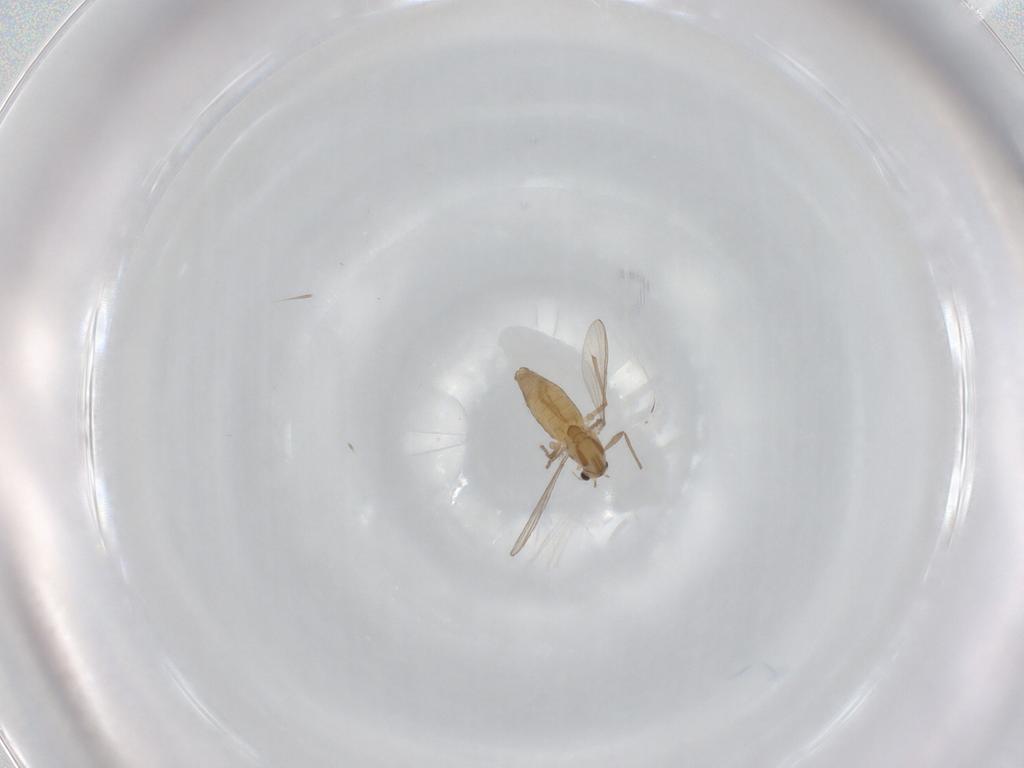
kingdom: Animalia
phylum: Arthropoda
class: Insecta
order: Diptera
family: Chironomidae
